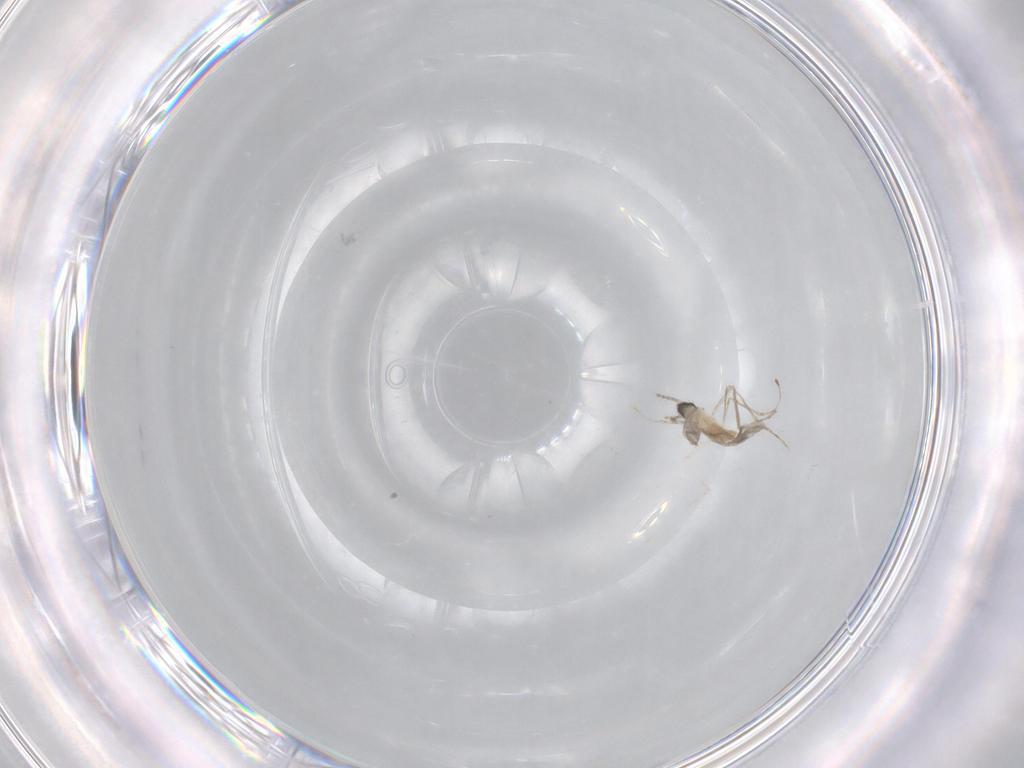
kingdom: Animalia
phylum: Arthropoda
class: Insecta
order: Diptera
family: Cecidomyiidae
